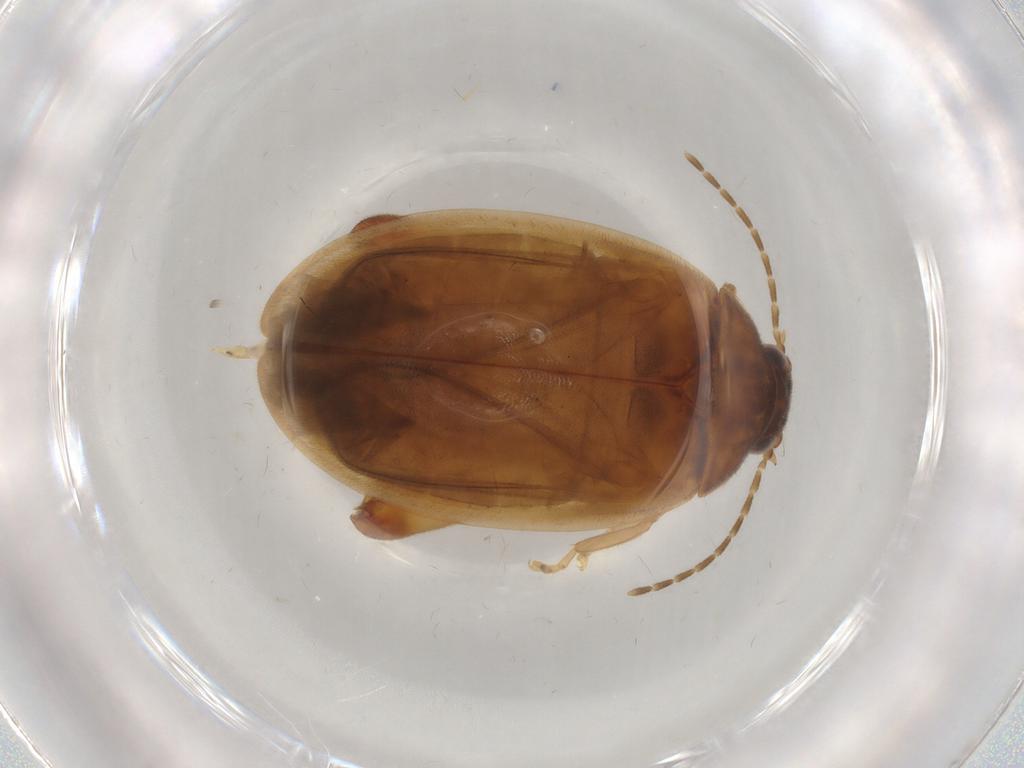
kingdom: Animalia
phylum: Arthropoda
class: Insecta
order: Coleoptera
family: Scirtidae
